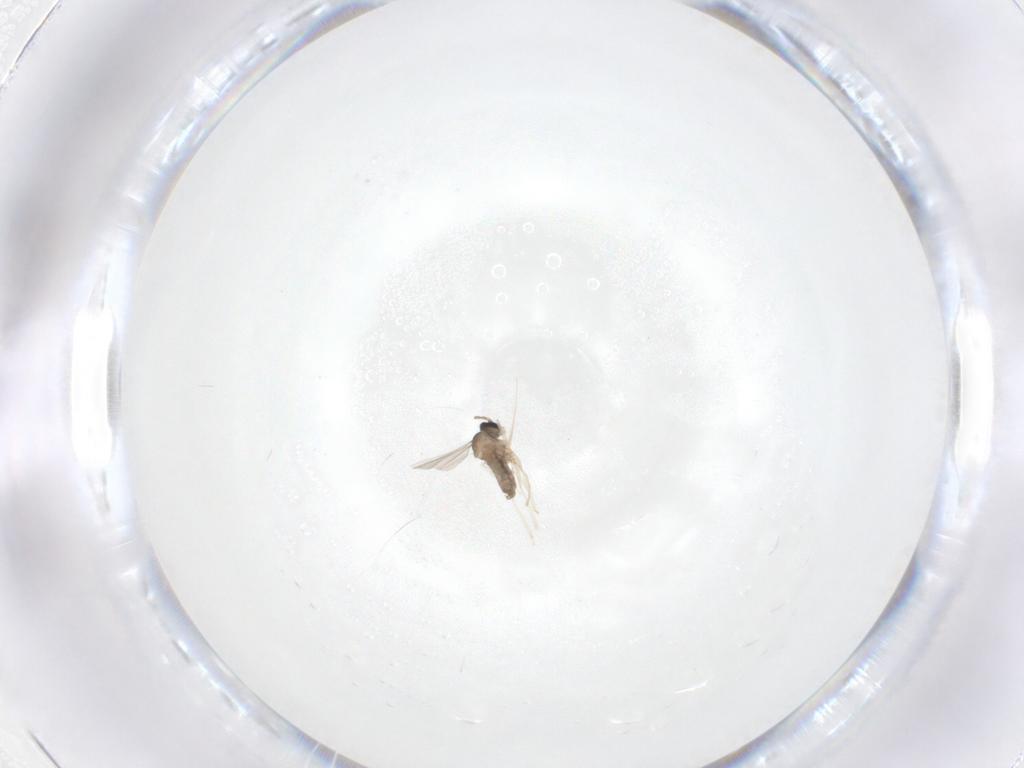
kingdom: Animalia
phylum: Arthropoda
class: Insecta
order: Diptera
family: Cecidomyiidae
